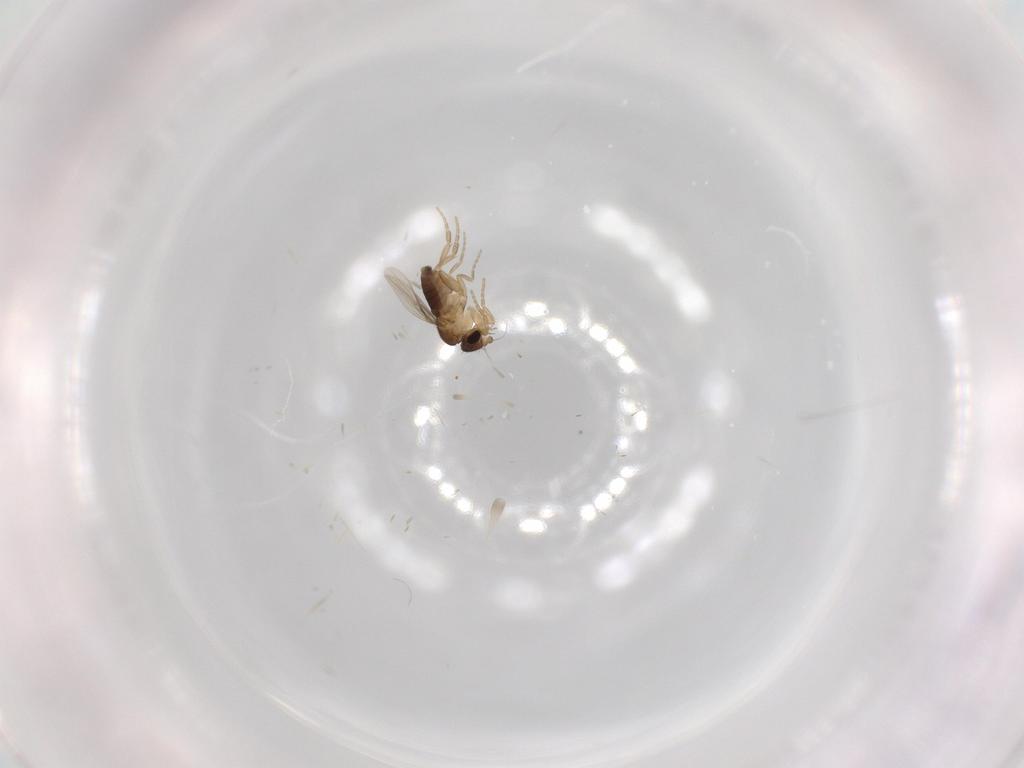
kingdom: Animalia
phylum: Arthropoda
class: Insecta
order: Diptera
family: Phoridae
